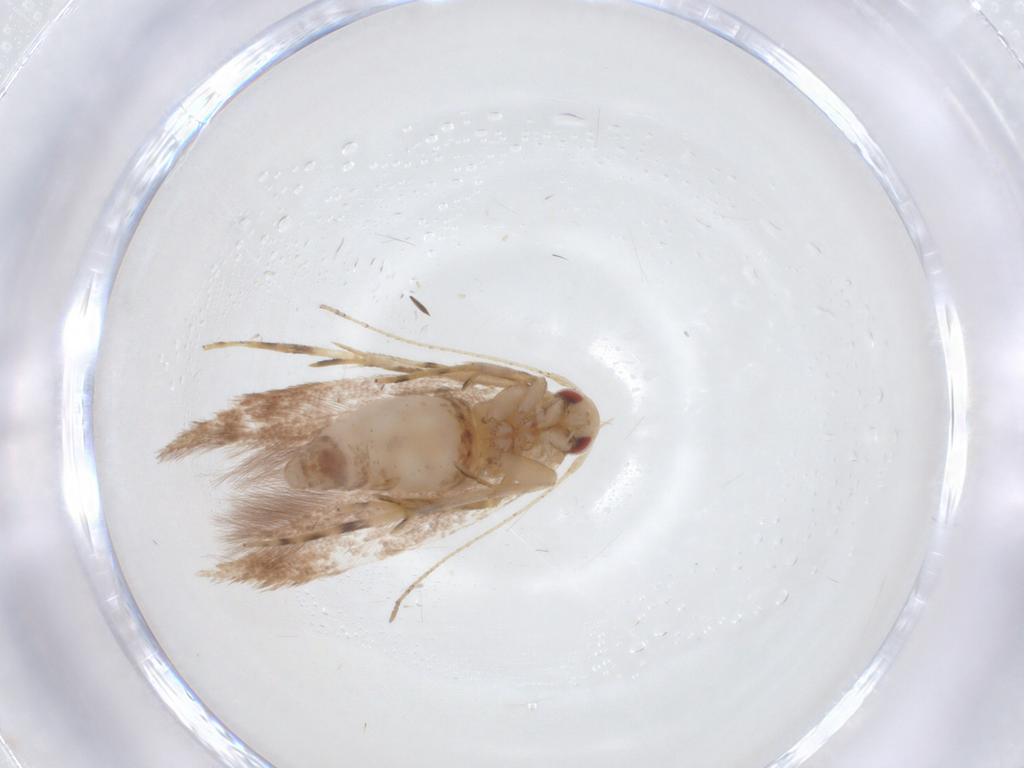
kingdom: Animalia
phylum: Arthropoda
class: Insecta
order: Lepidoptera
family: Cosmopterigidae
